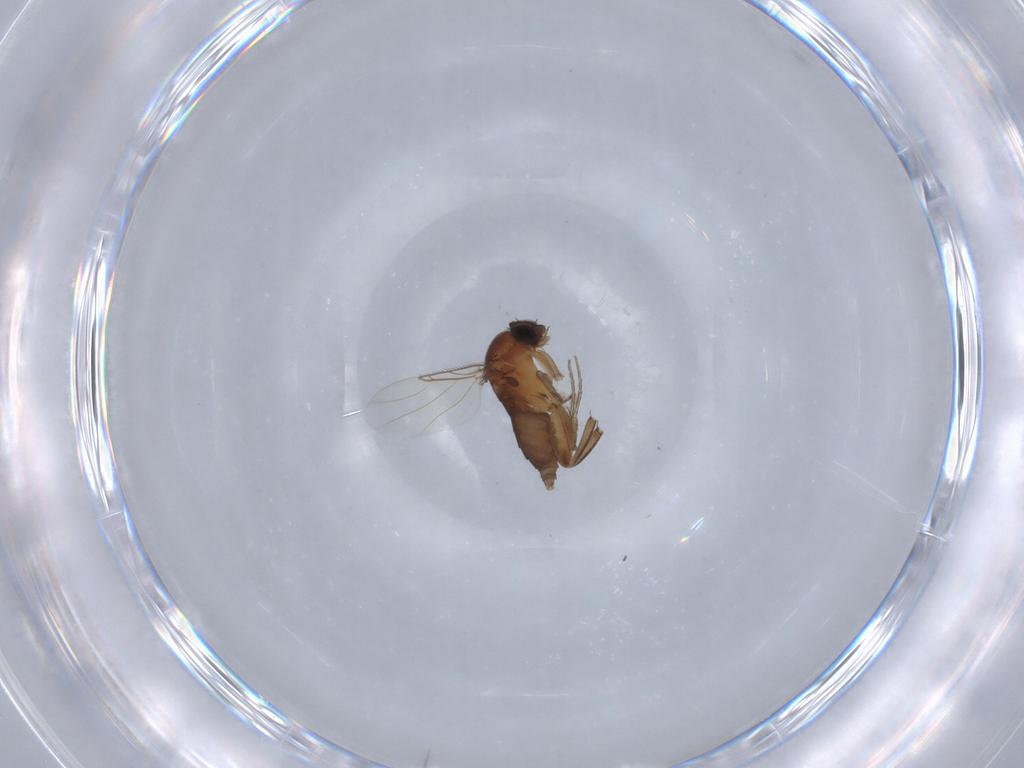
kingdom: Animalia
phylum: Arthropoda
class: Insecta
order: Diptera
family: Phoridae
